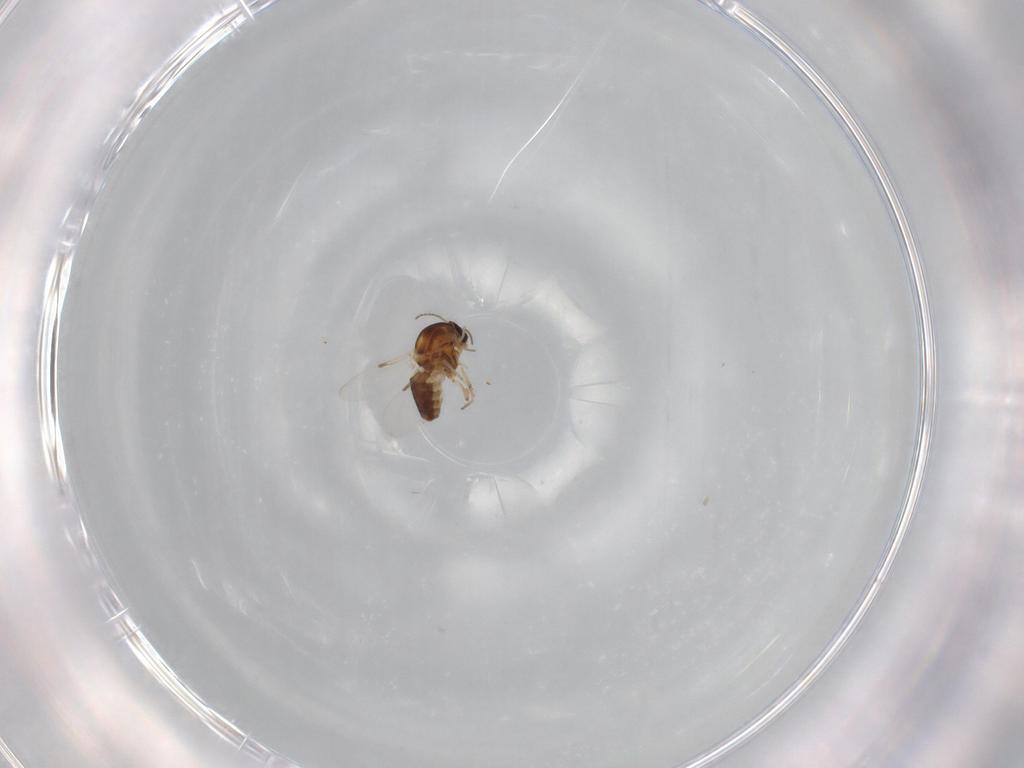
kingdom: Animalia
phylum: Arthropoda
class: Insecta
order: Diptera
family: Ceratopogonidae
